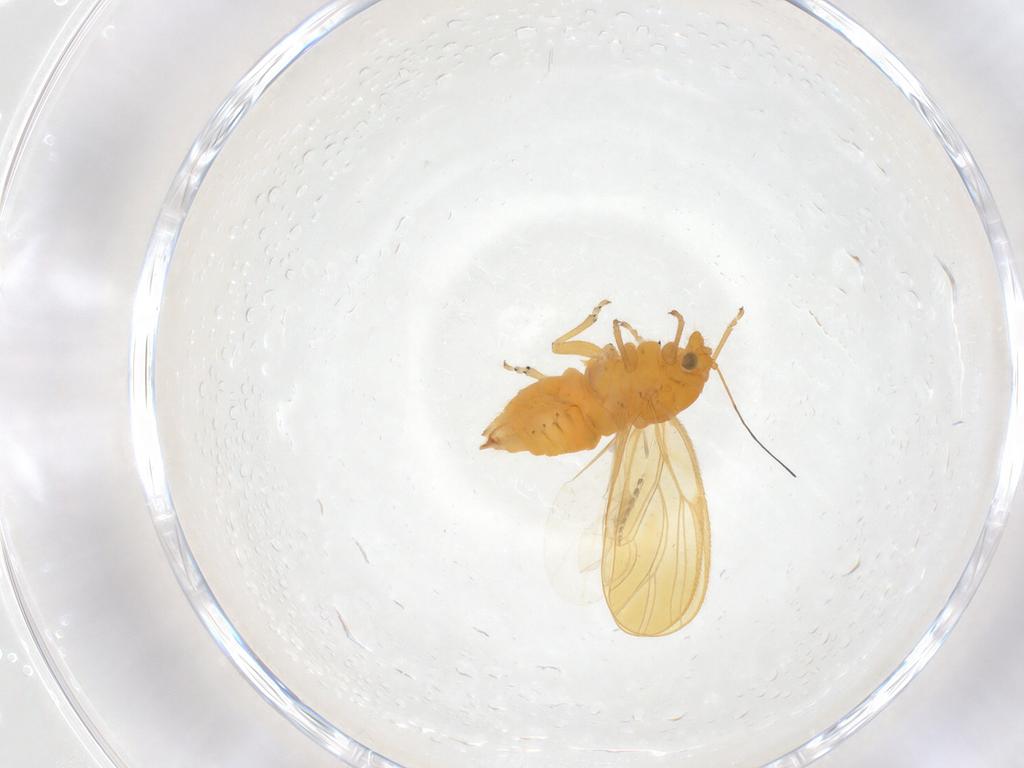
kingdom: Animalia
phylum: Arthropoda
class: Insecta
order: Hemiptera
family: Psyllidae
